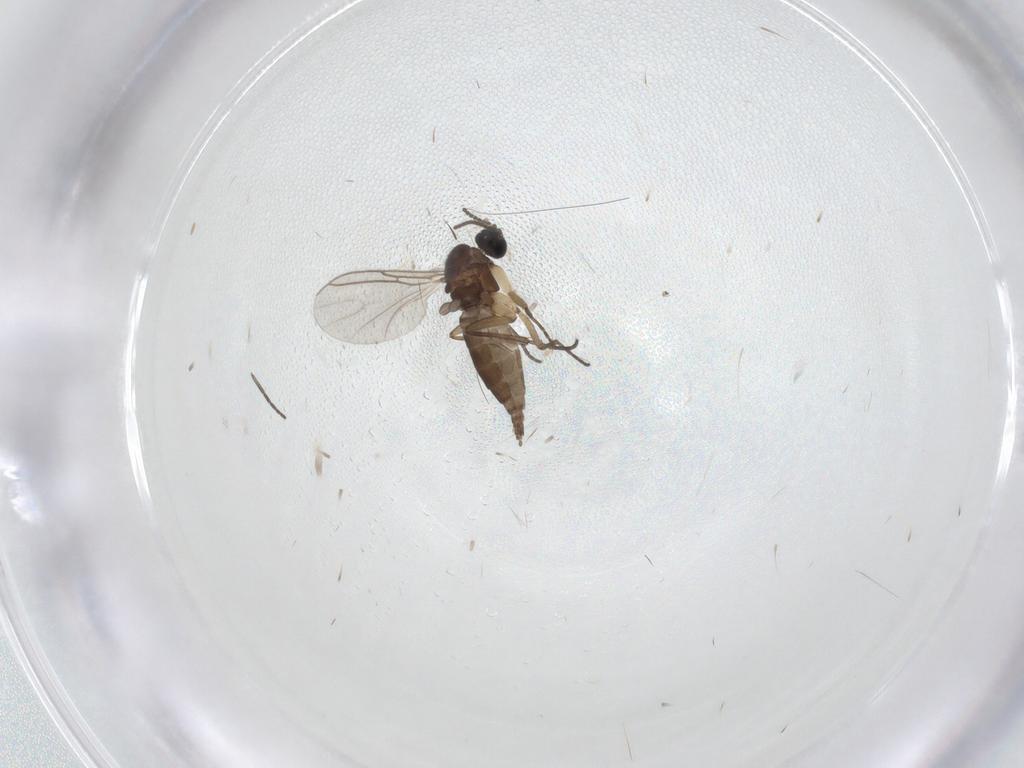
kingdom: Animalia
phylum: Arthropoda
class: Insecta
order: Diptera
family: Sciaridae
